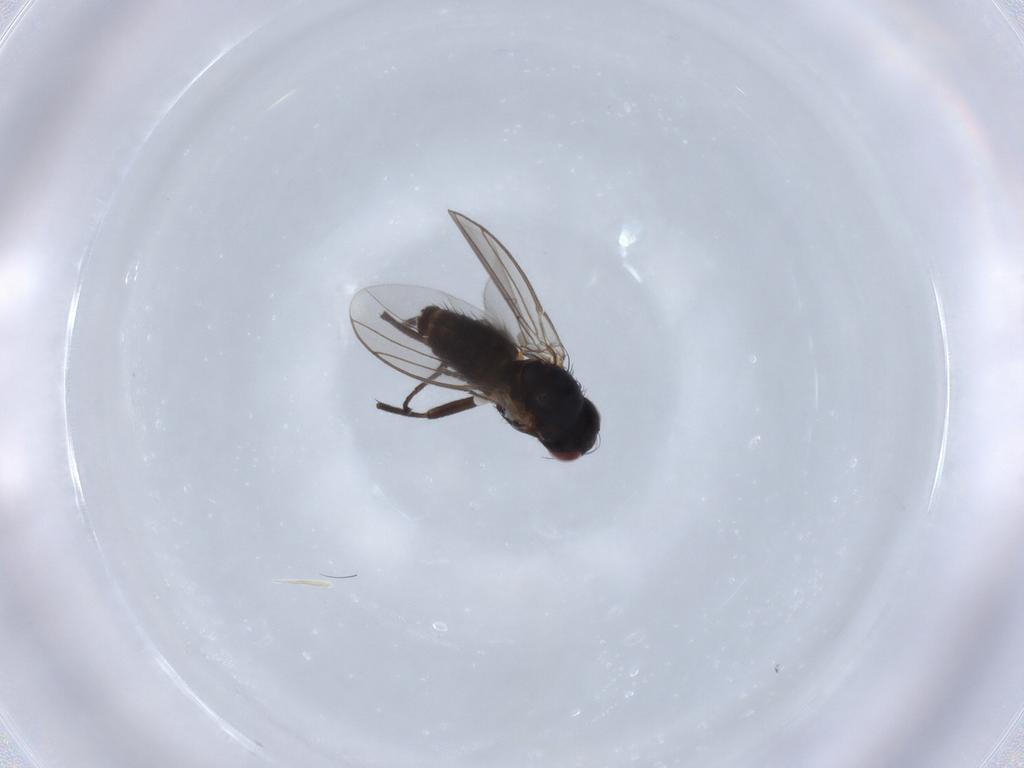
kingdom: Animalia
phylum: Arthropoda
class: Insecta
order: Diptera
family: Agromyzidae
